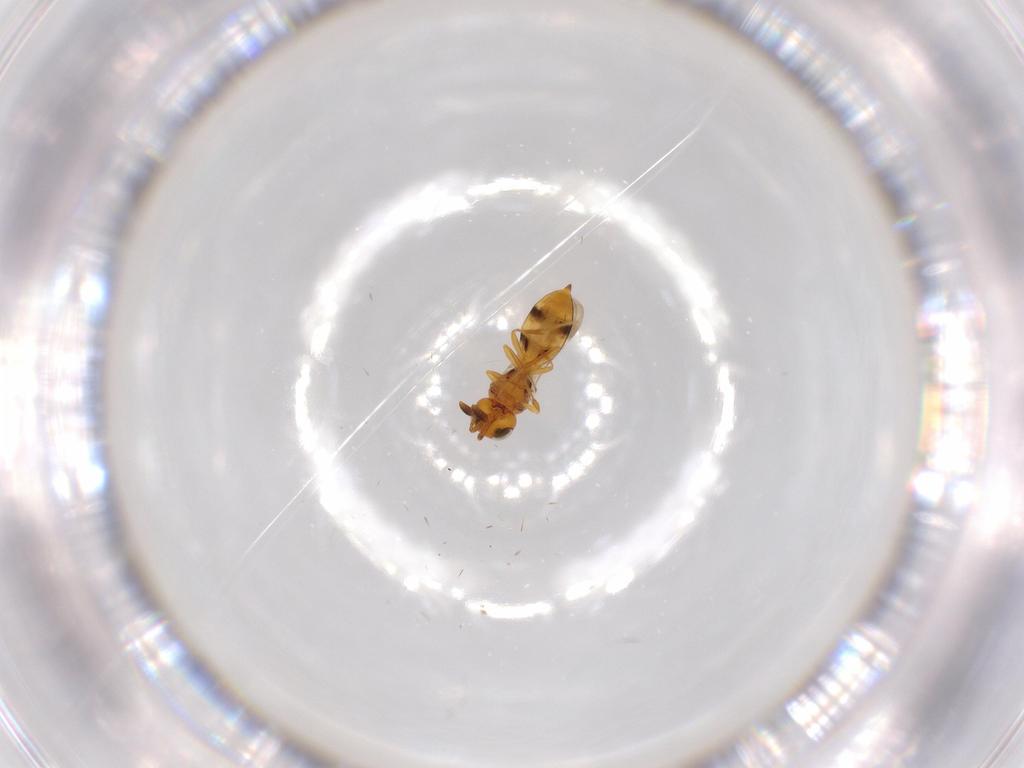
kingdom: Animalia
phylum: Arthropoda
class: Insecta
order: Hymenoptera
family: Scelionidae
